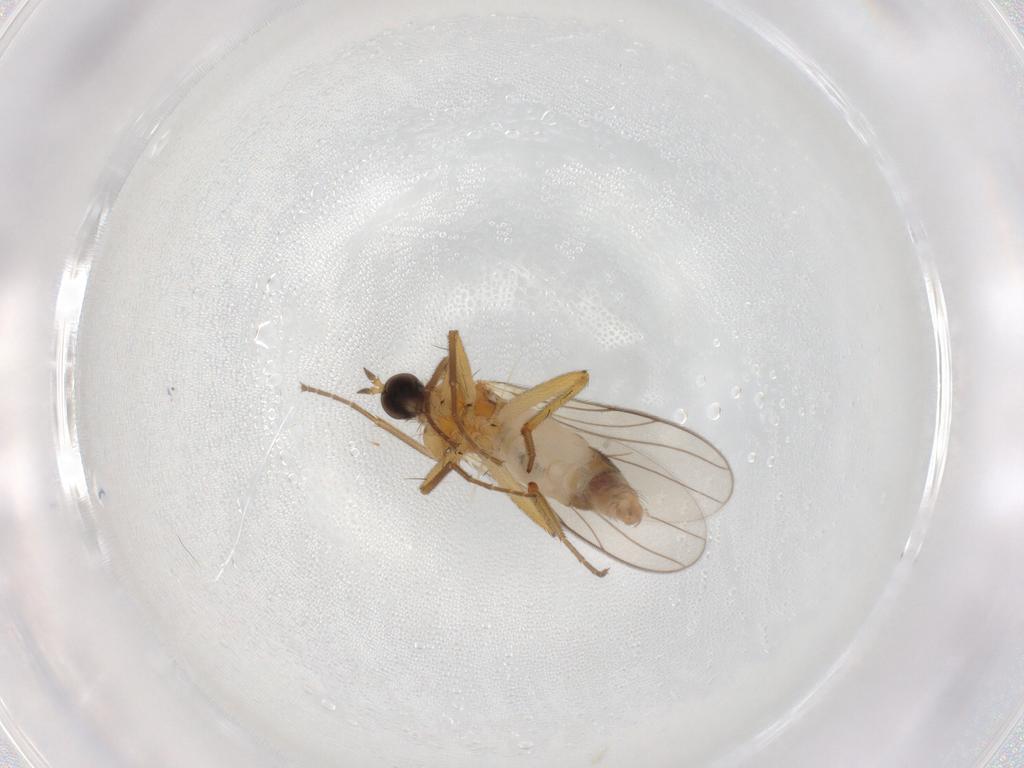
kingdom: Animalia
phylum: Arthropoda
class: Insecta
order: Diptera
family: Hybotidae
